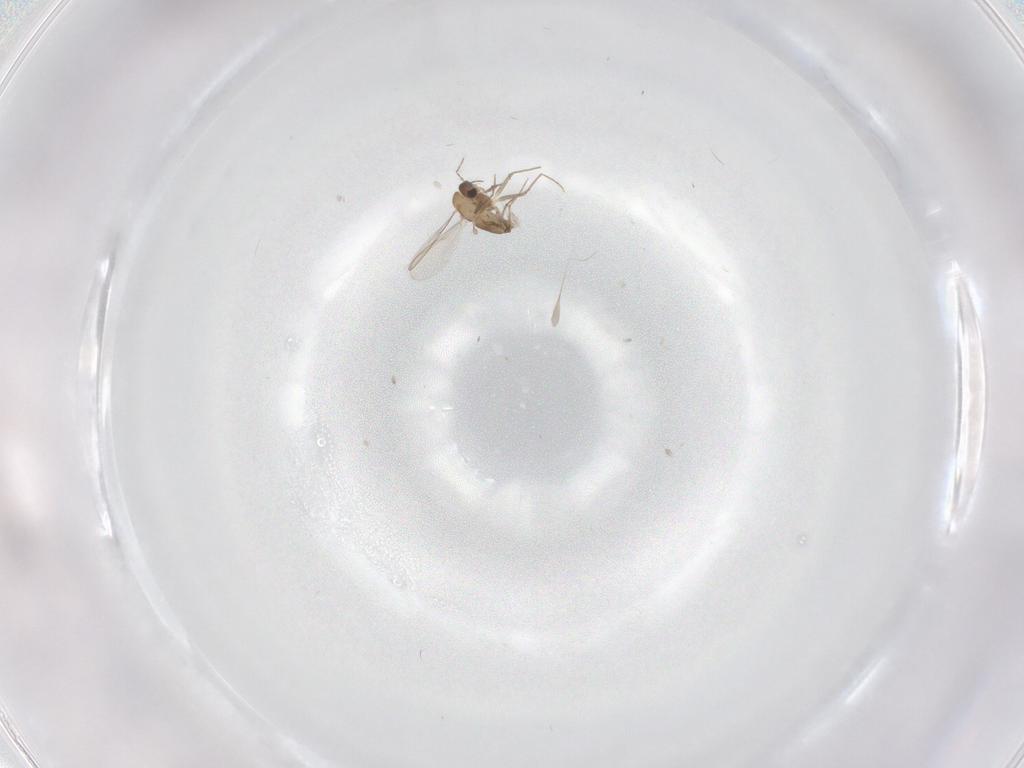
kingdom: Animalia
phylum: Arthropoda
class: Insecta
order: Diptera
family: Chironomidae
